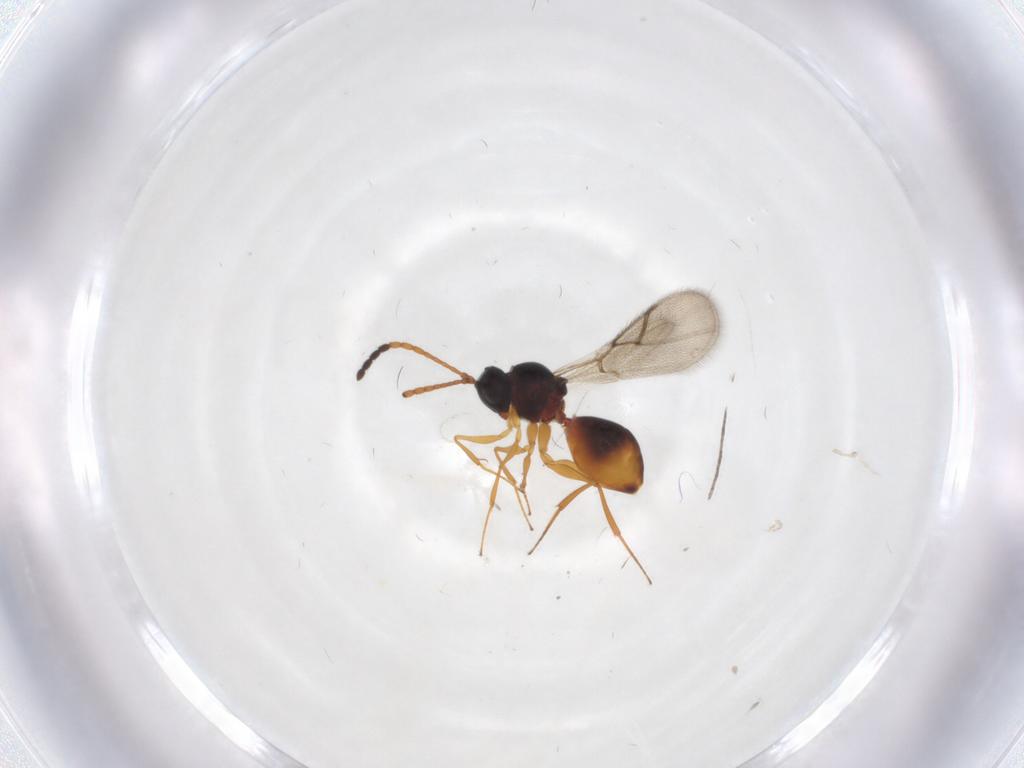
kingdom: Animalia
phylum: Arthropoda
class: Insecta
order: Hymenoptera
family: Figitidae
